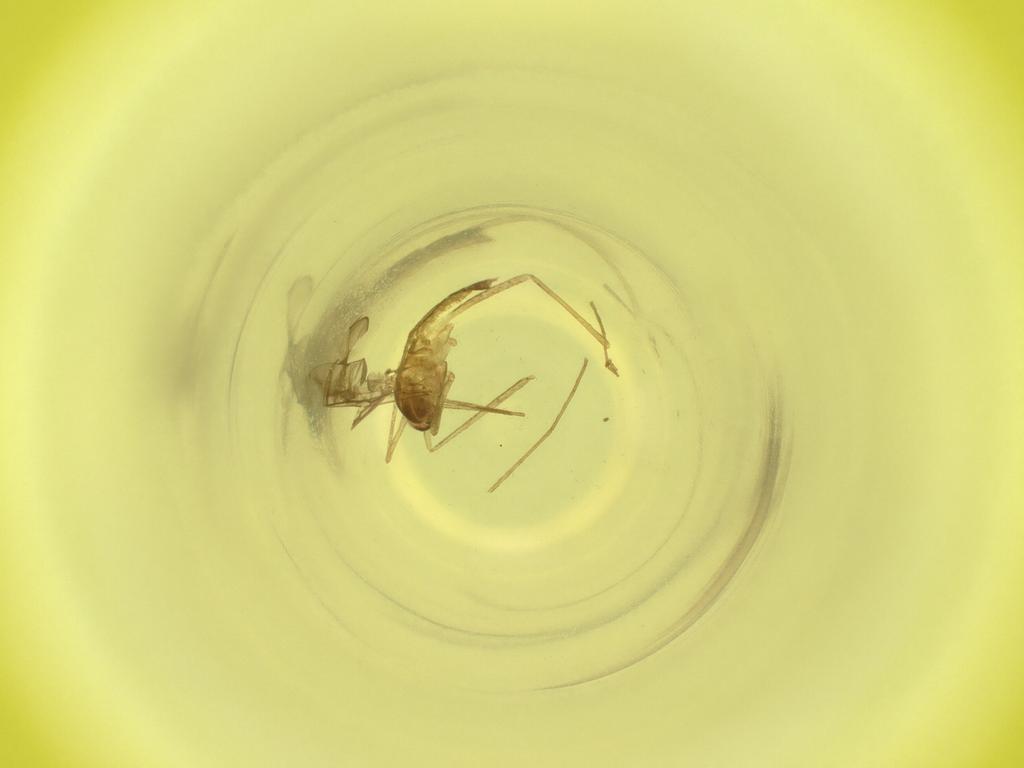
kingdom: Animalia
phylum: Arthropoda
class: Insecta
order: Diptera
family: Cecidomyiidae
